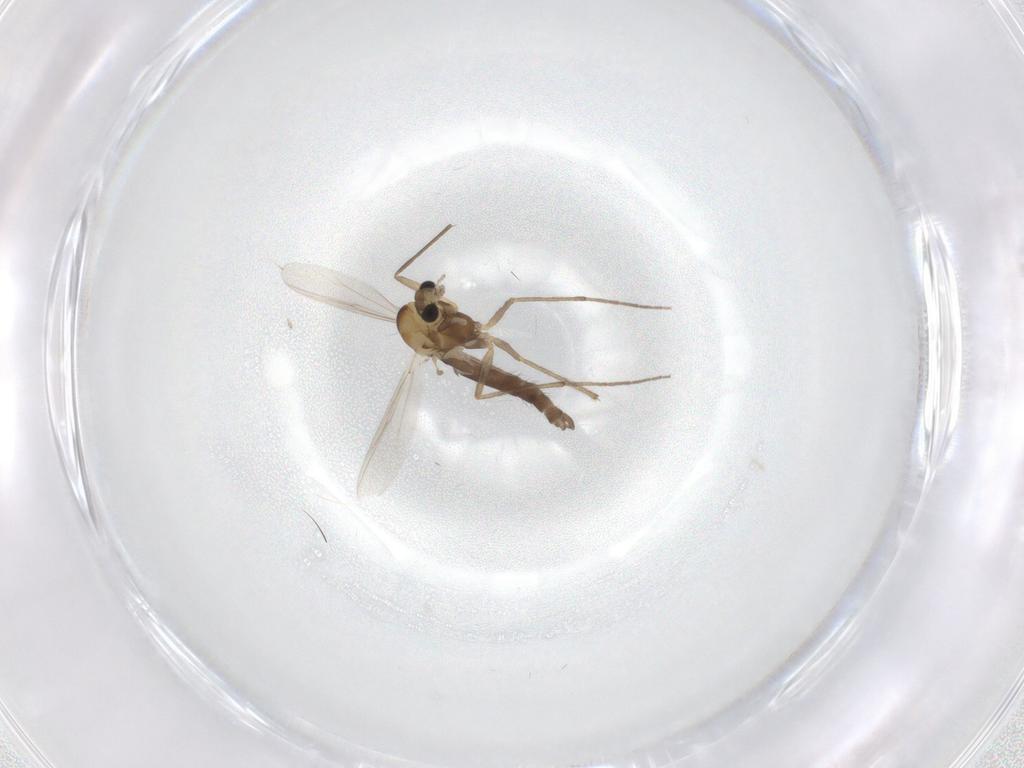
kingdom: Animalia
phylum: Arthropoda
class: Insecta
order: Diptera
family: Chironomidae
